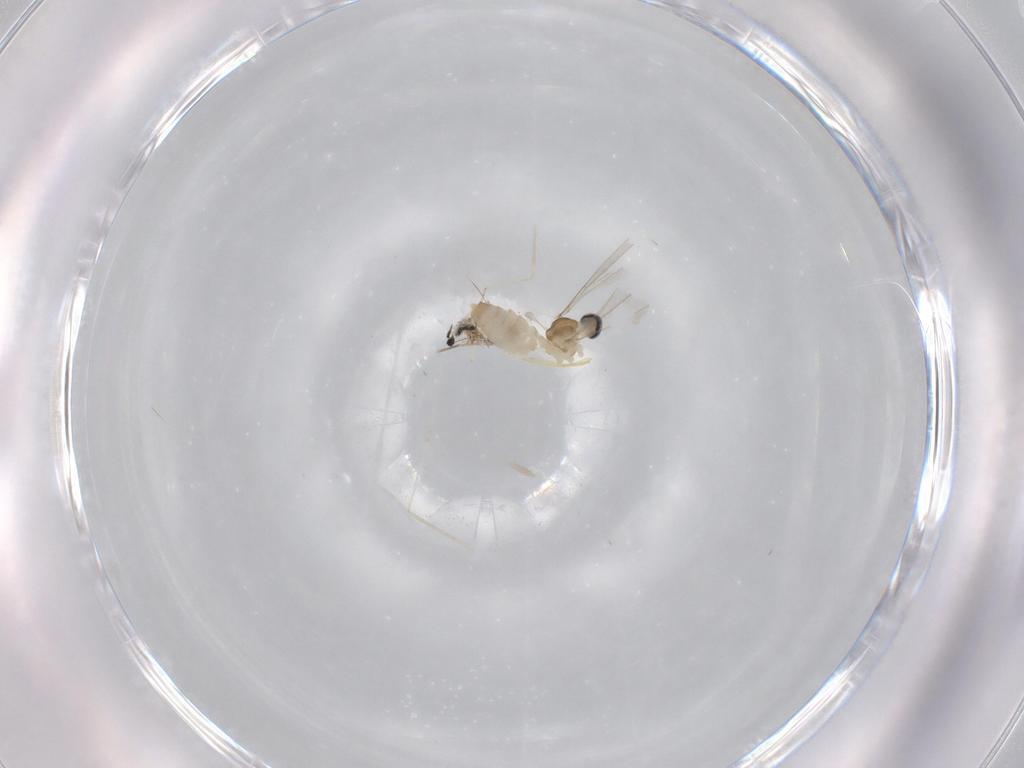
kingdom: Animalia
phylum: Arthropoda
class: Insecta
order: Diptera
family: Cecidomyiidae
